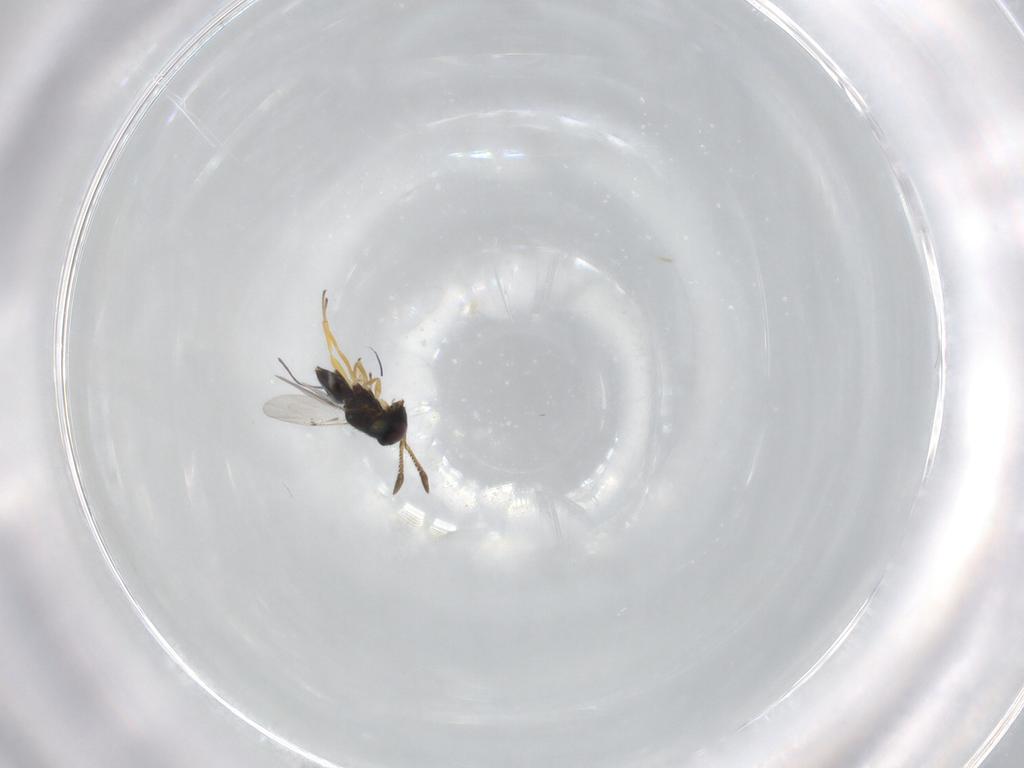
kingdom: Animalia
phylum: Arthropoda
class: Insecta
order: Hymenoptera
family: Encyrtidae
